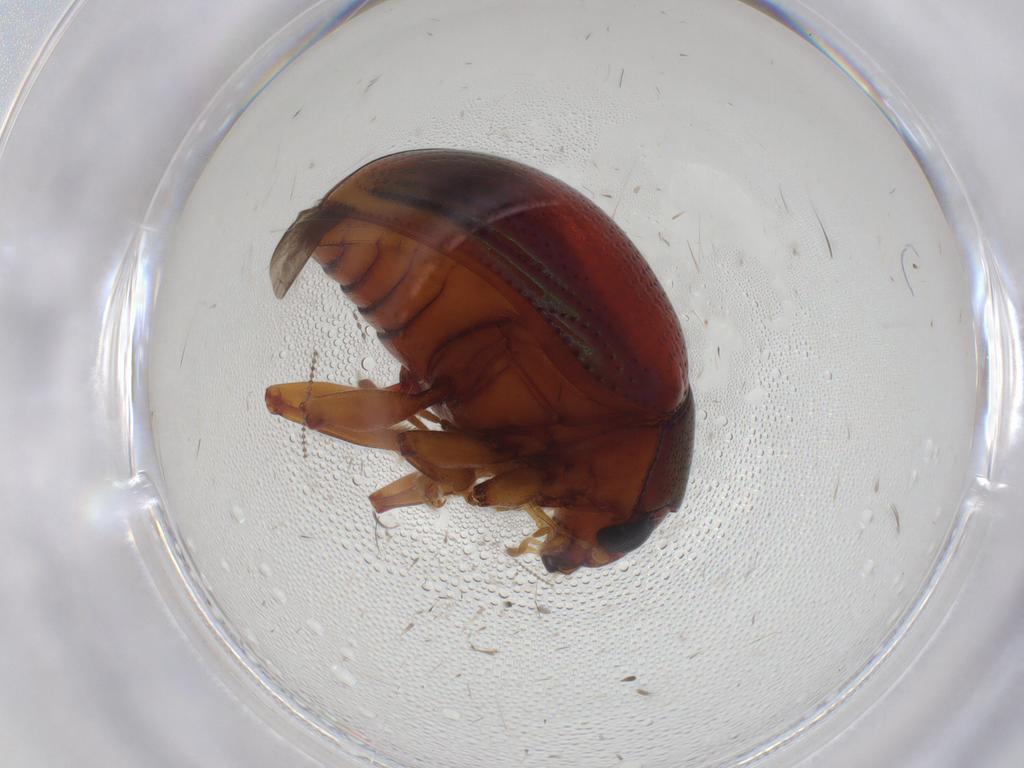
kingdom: Animalia
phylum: Arthropoda
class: Insecta
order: Coleoptera
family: Chrysomelidae
